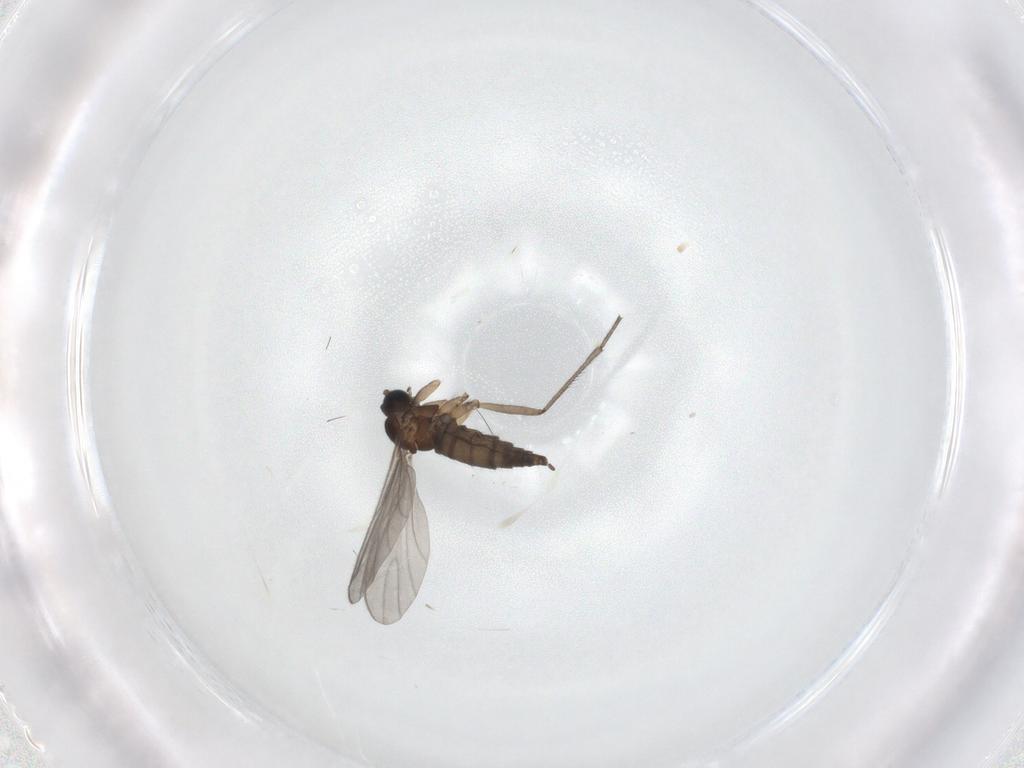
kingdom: Animalia
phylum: Arthropoda
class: Insecta
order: Diptera
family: Sciaridae
